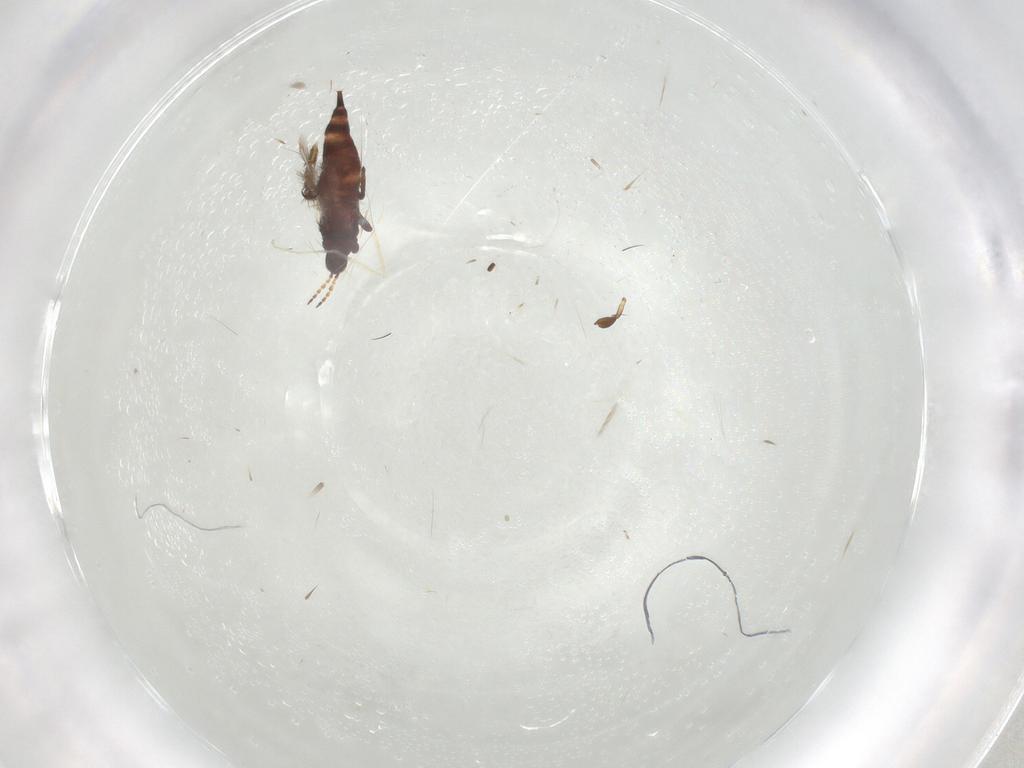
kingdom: Animalia
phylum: Arthropoda
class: Insecta
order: Thysanoptera
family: Phlaeothripidae
